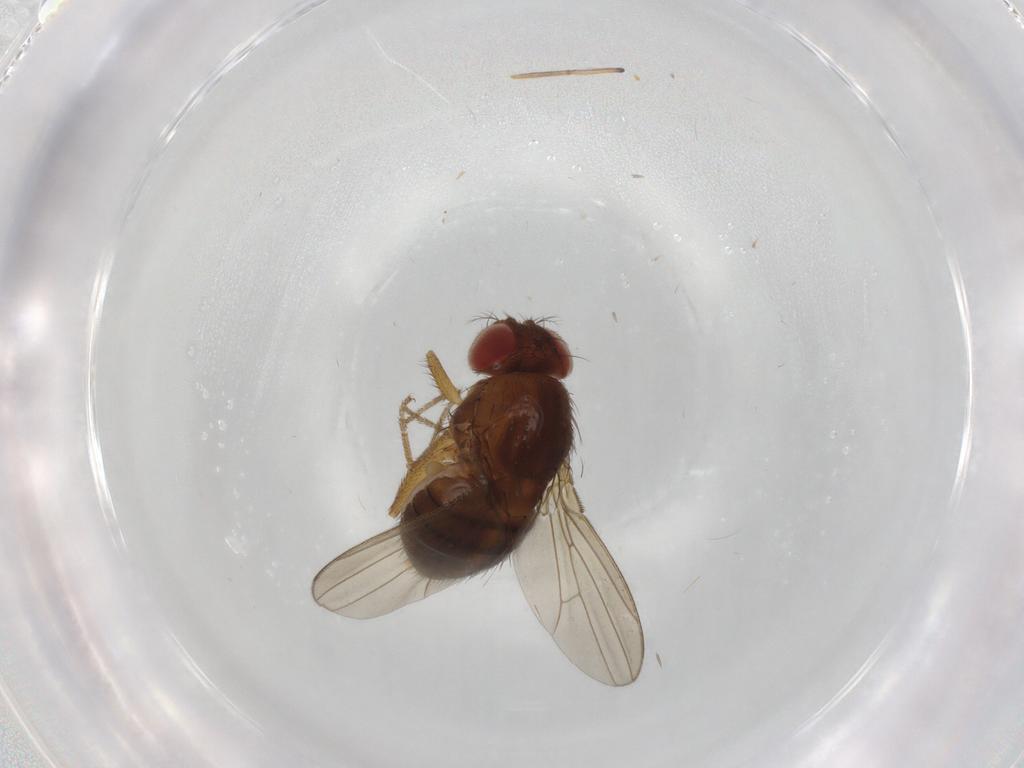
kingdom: Animalia
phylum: Arthropoda
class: Insecta
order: Diptera
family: Drosophilidae
